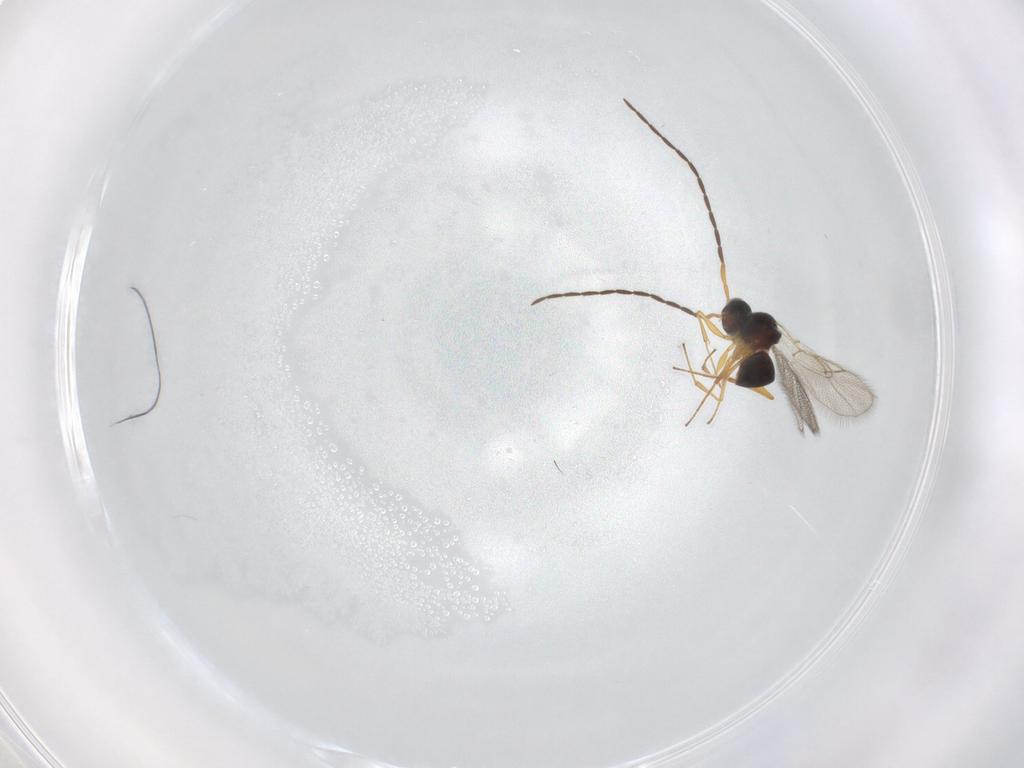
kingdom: Animalia
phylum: Arthropoda
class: Insecta
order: Hymenoptera
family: Figitidae
